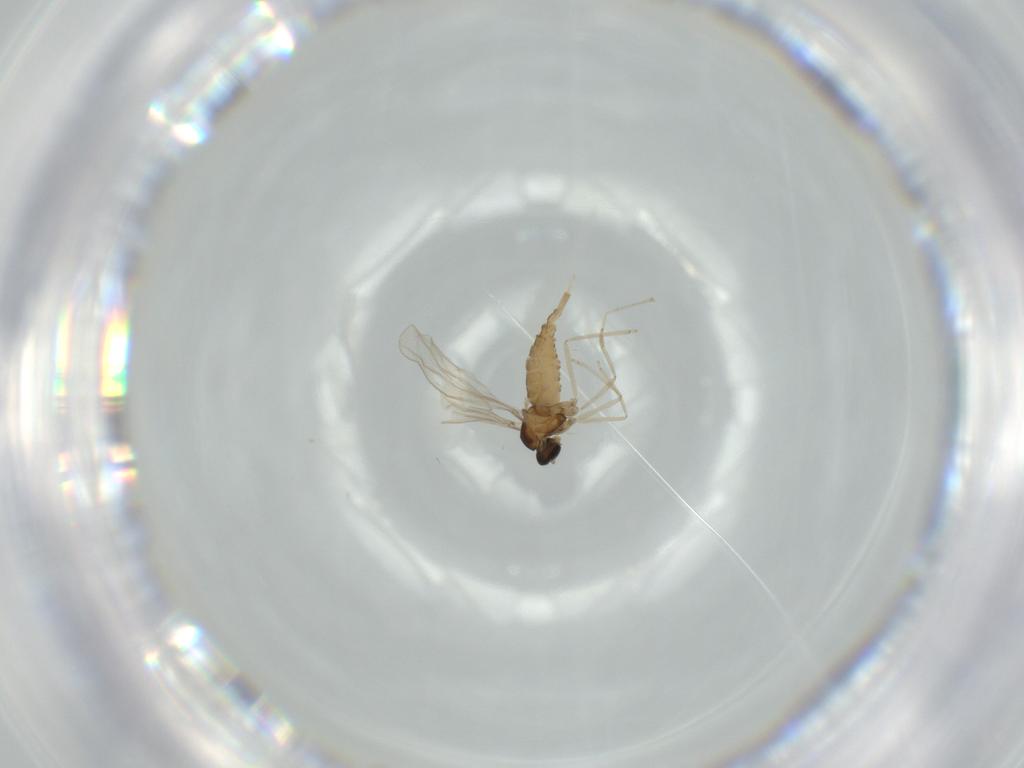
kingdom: Animalia
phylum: Arthropoda
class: Insecta
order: Diptera
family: Cecidomyiidae
